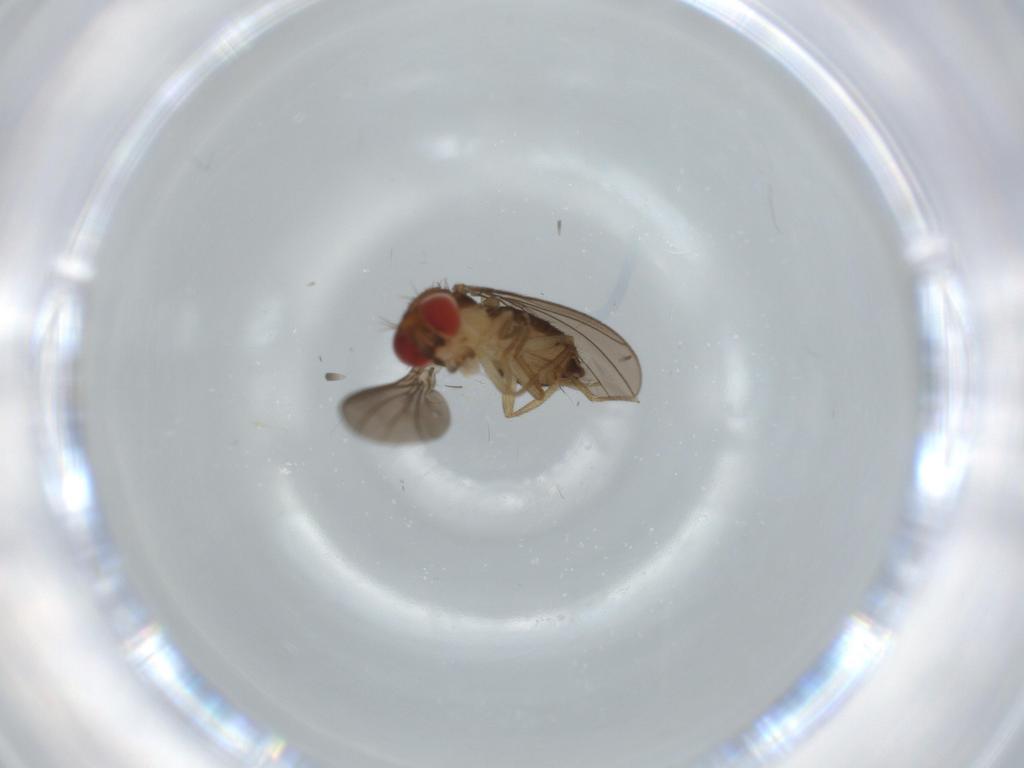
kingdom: Animalia
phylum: Arthropoda
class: Insecta
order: Diptera
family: Drosophilidae
